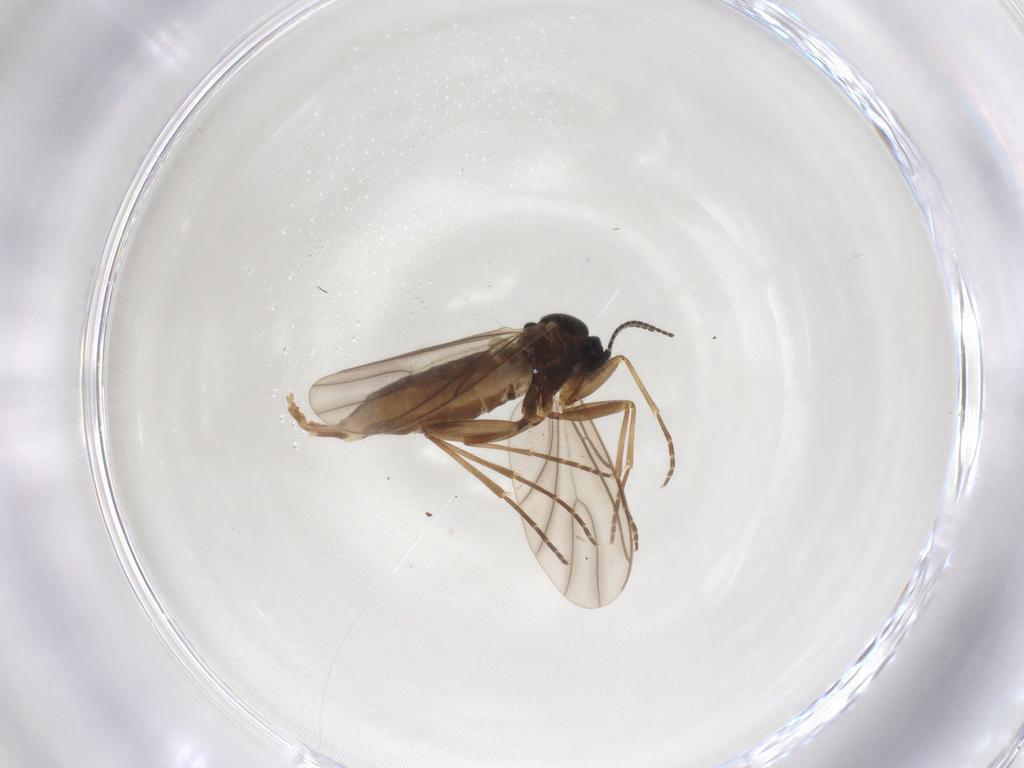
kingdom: Animalia
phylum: Arthropoda
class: Insecta
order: Diptera
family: Sciaridae
